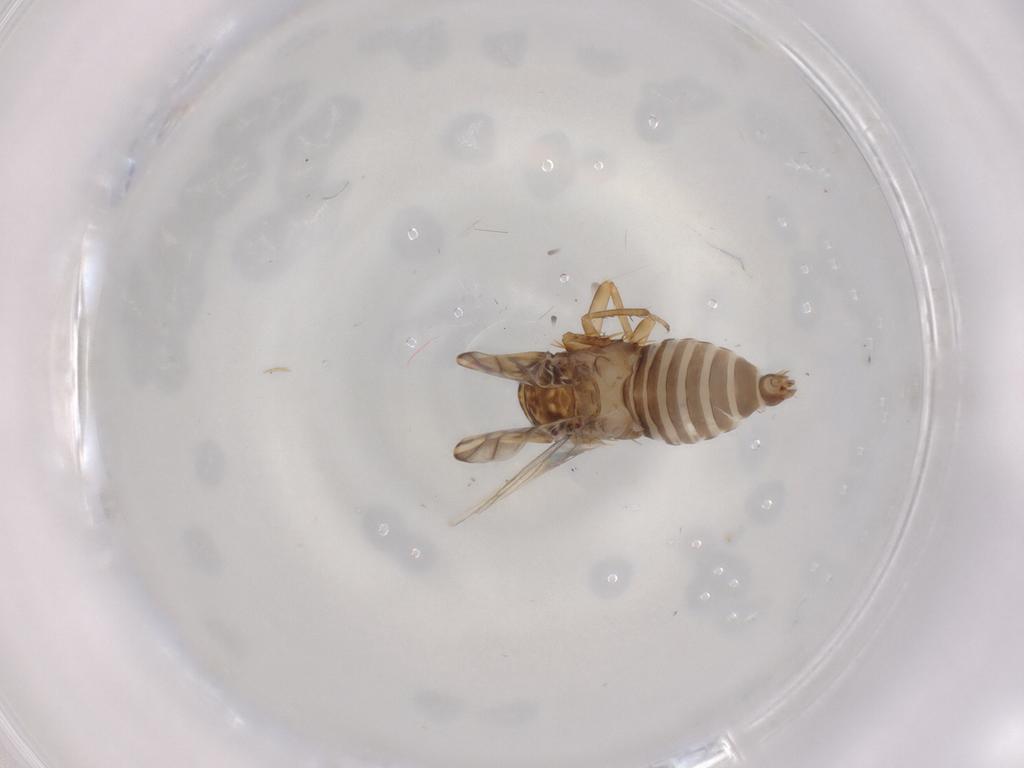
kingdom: Animalia
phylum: Arthropoda
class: Insecta
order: Hemiptera
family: Cicadellidae
